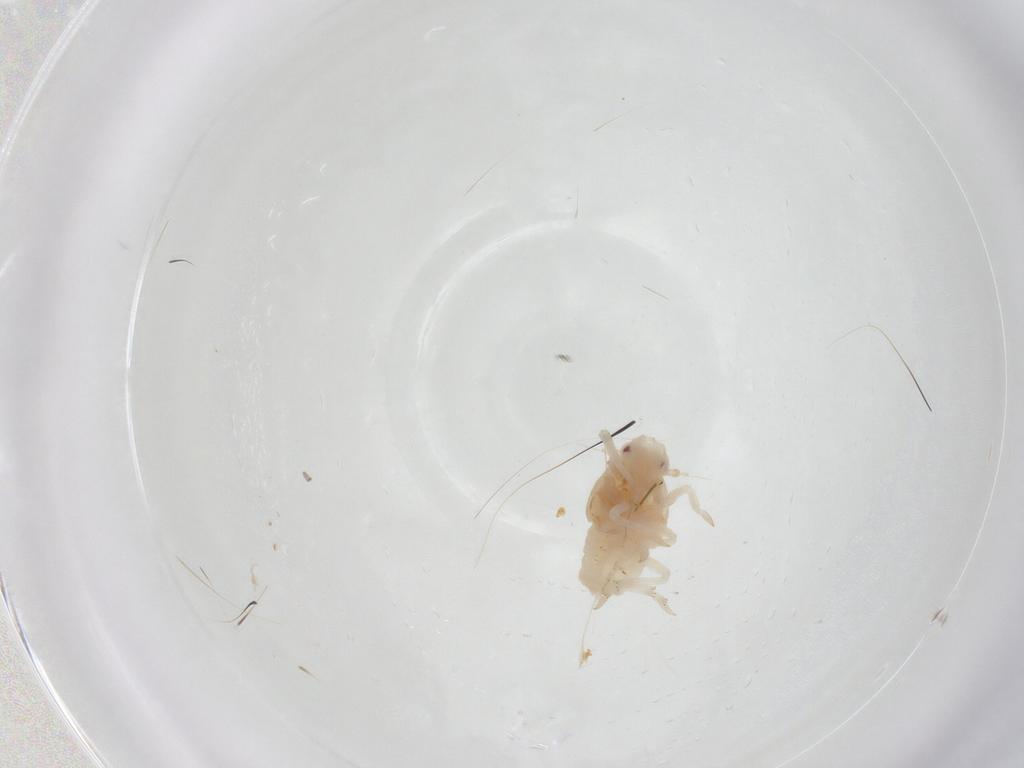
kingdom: Animalia
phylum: Arthropoda
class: Insecta
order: Hemiptera
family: Flatidae
